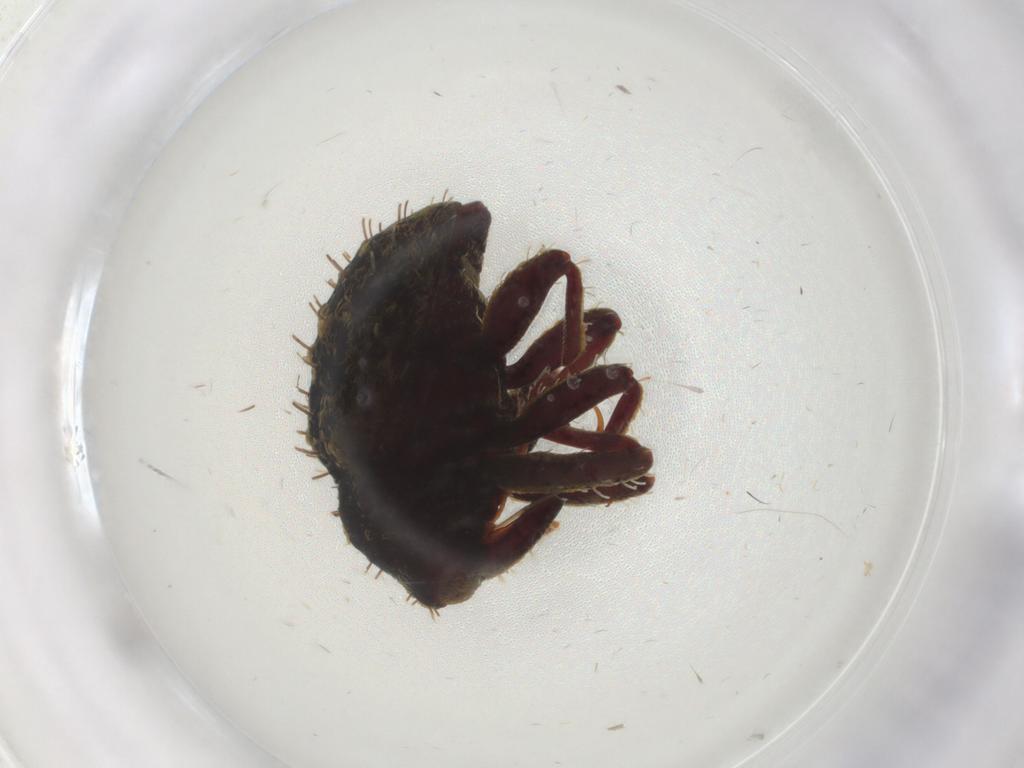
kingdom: Animalia
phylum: Arthropoda
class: Insecta
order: Coleoptera
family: Curculionidae
